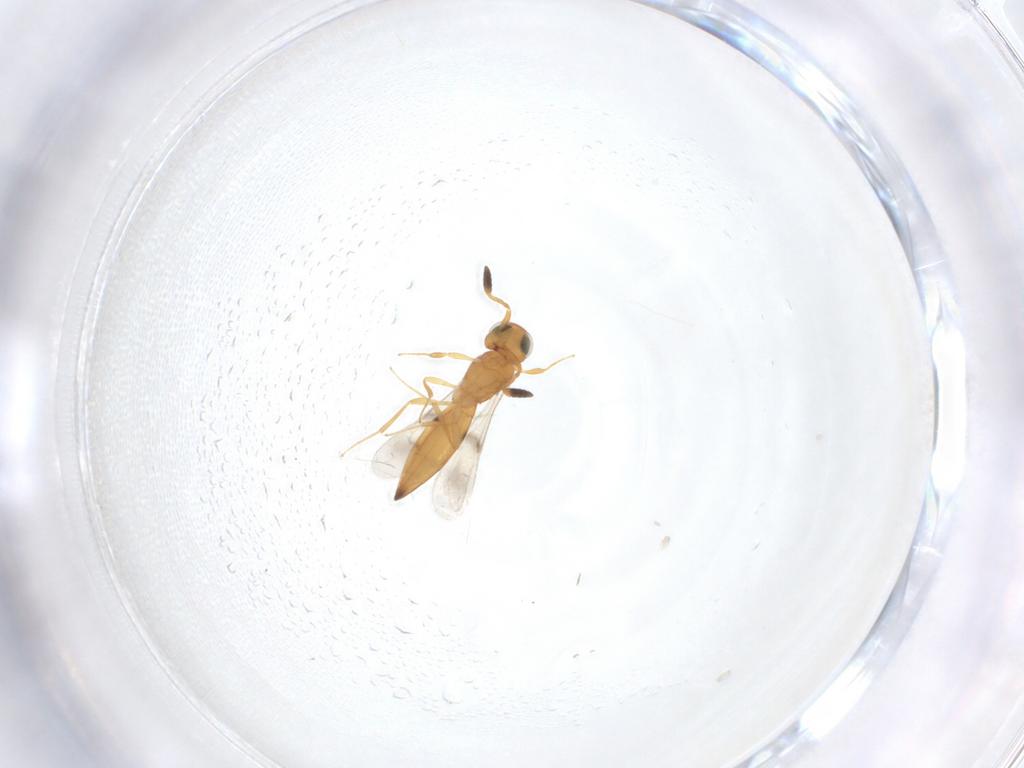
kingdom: Animalia
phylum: Arthropoda
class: Insecta
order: Hymenoptera
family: Scelionidae
